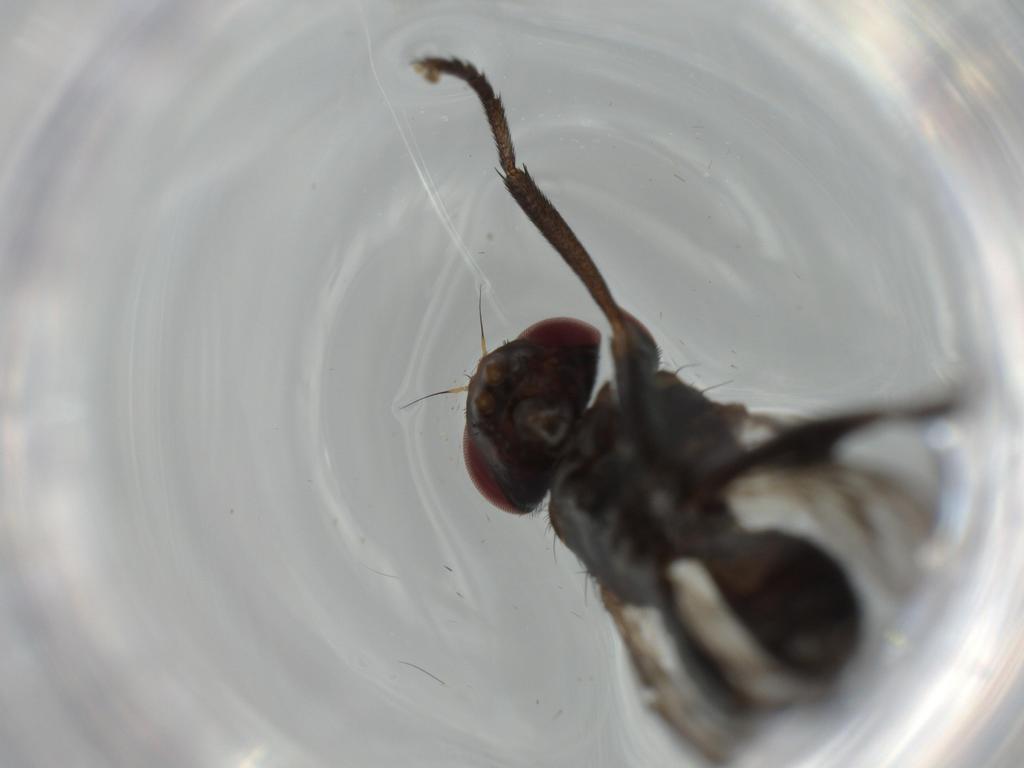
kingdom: Animalia
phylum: Arthropoda
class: Insecta
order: Diptera
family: Calliphoridae
